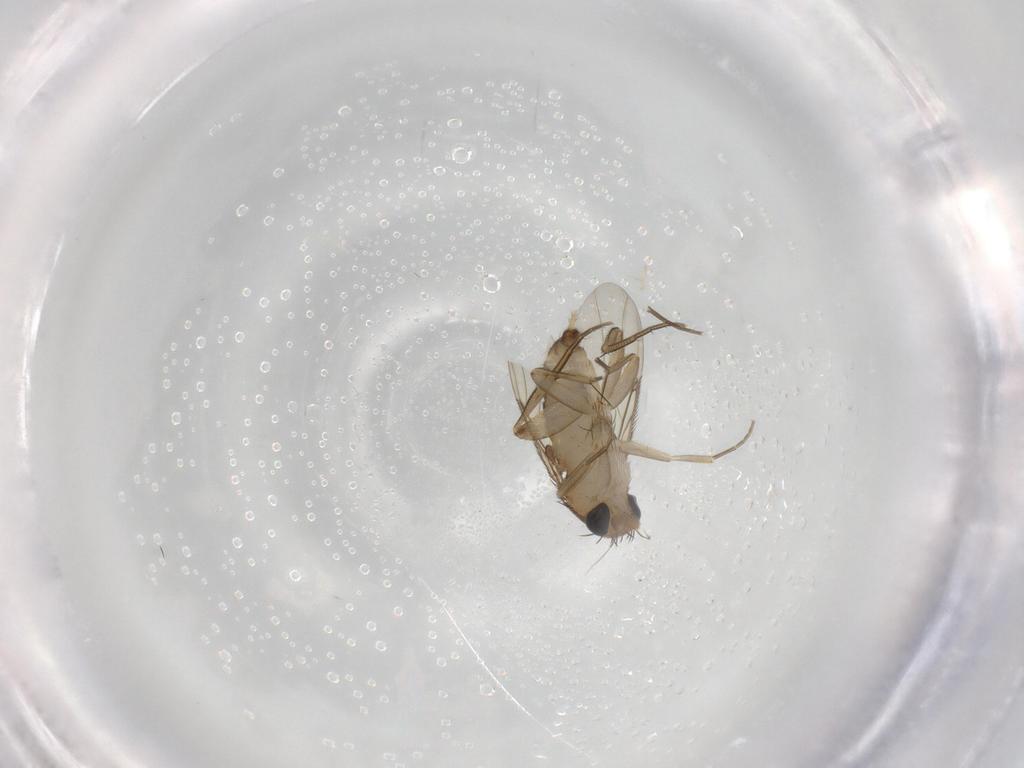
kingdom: Animalia
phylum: Arthropoda
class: Insecta
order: Diptera
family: Phoridae
